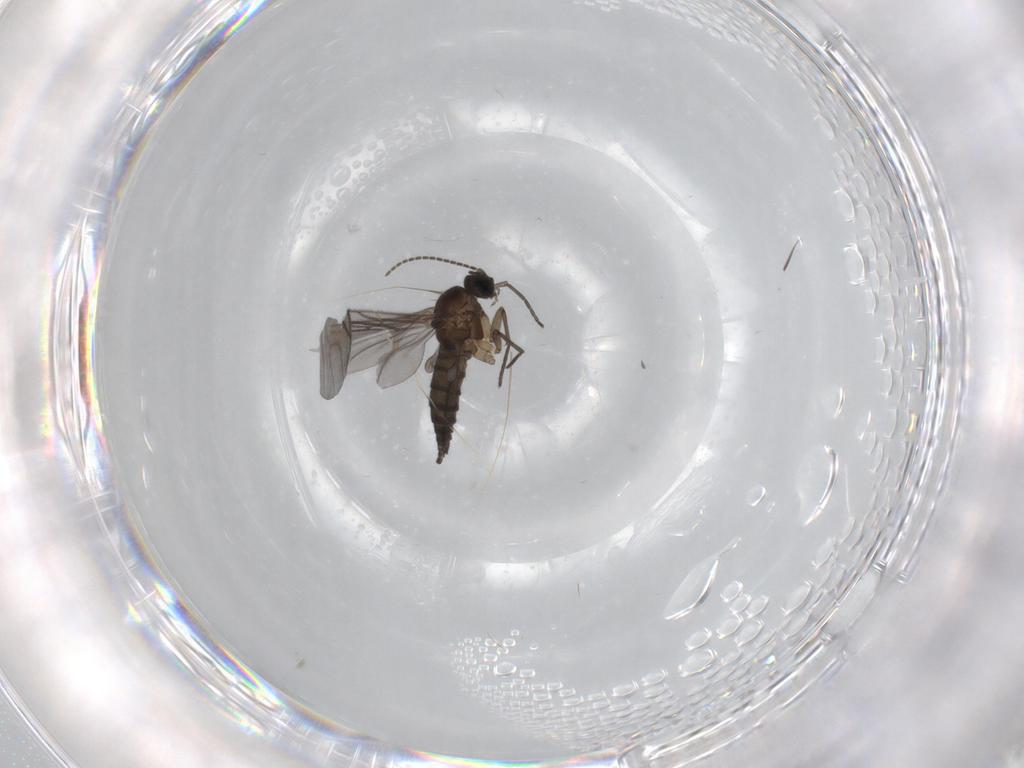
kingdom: Animalia
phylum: Arthropoda
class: Insecta
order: Diptera
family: Sciaridae
